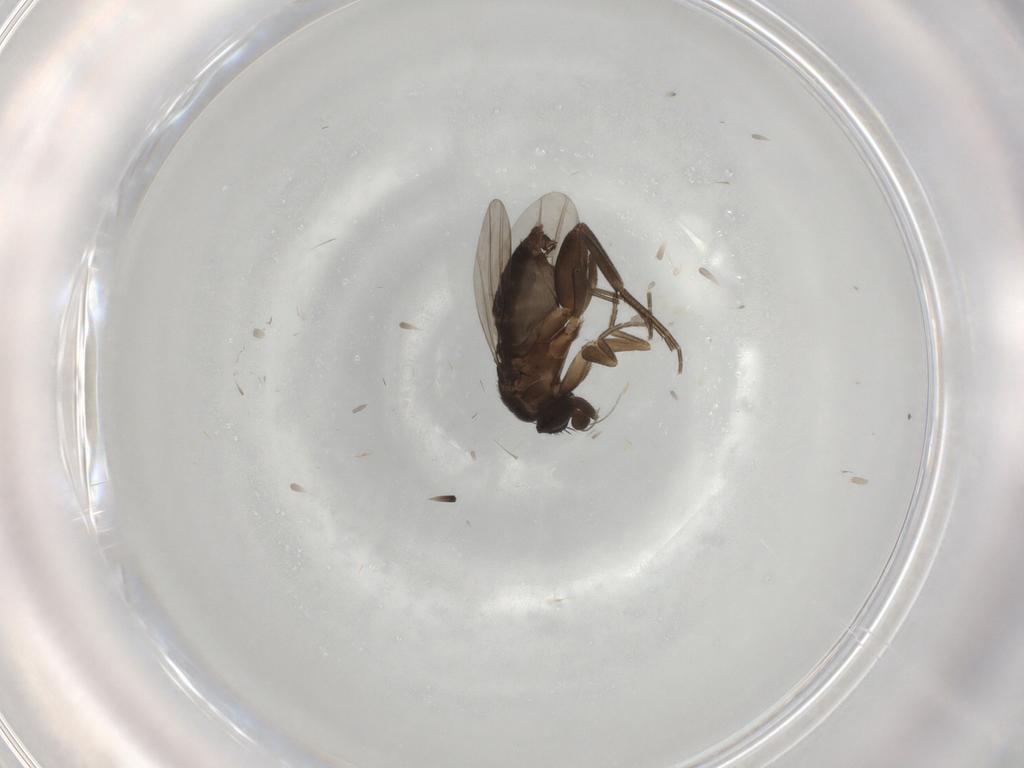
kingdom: Animalia
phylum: Arthropoda
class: Insecta
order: Diptera
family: Phoridae
